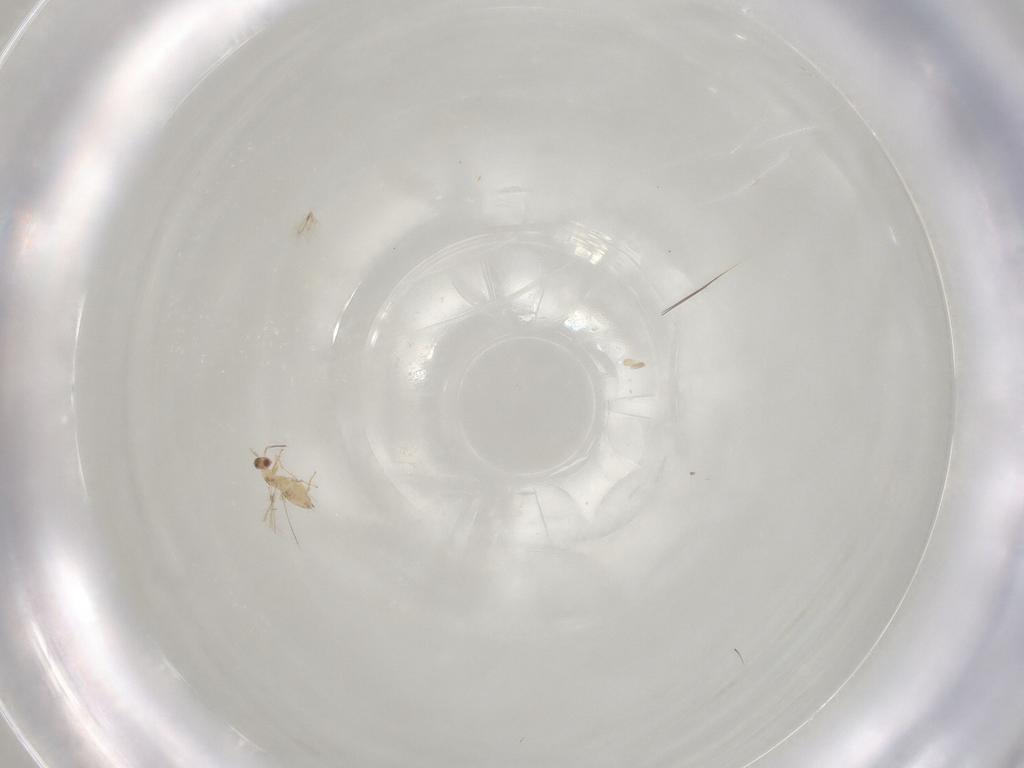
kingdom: Animalia
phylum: Arthropoda
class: Insecta
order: Hymenoptera
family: Mymaridae
